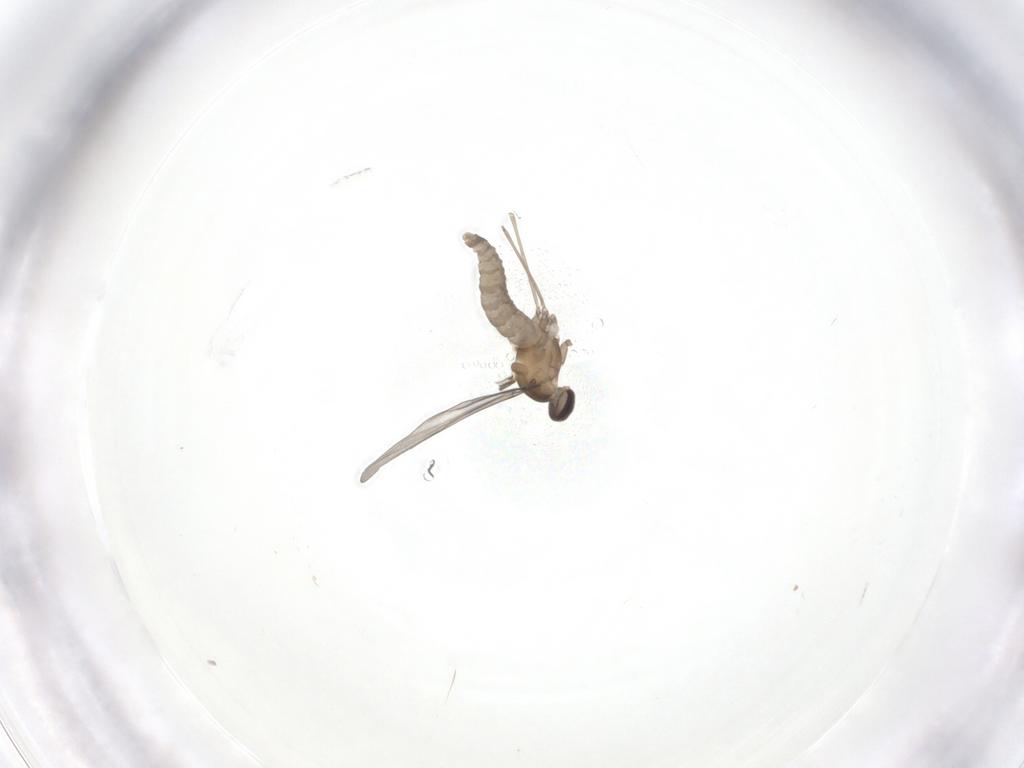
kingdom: Animalia
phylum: Arthropoda
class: Insecta
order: Diptera
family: Cecidomyiidae
